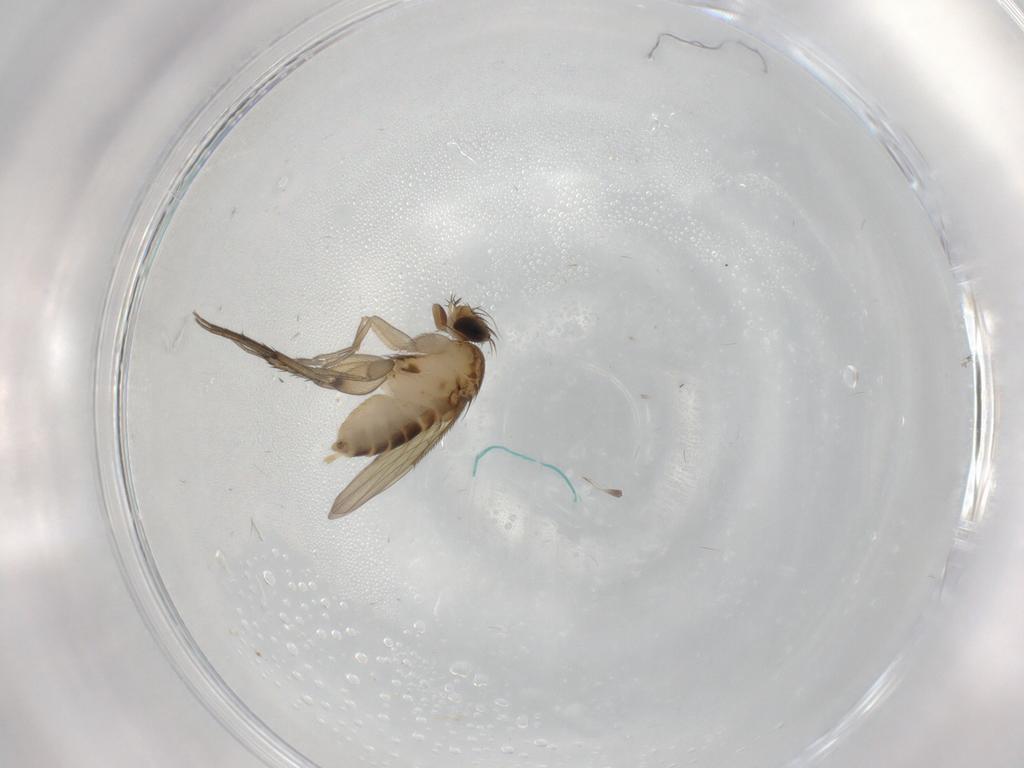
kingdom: Animalia
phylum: Arthropoda
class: Insecta
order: Diptera
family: Phoridae
